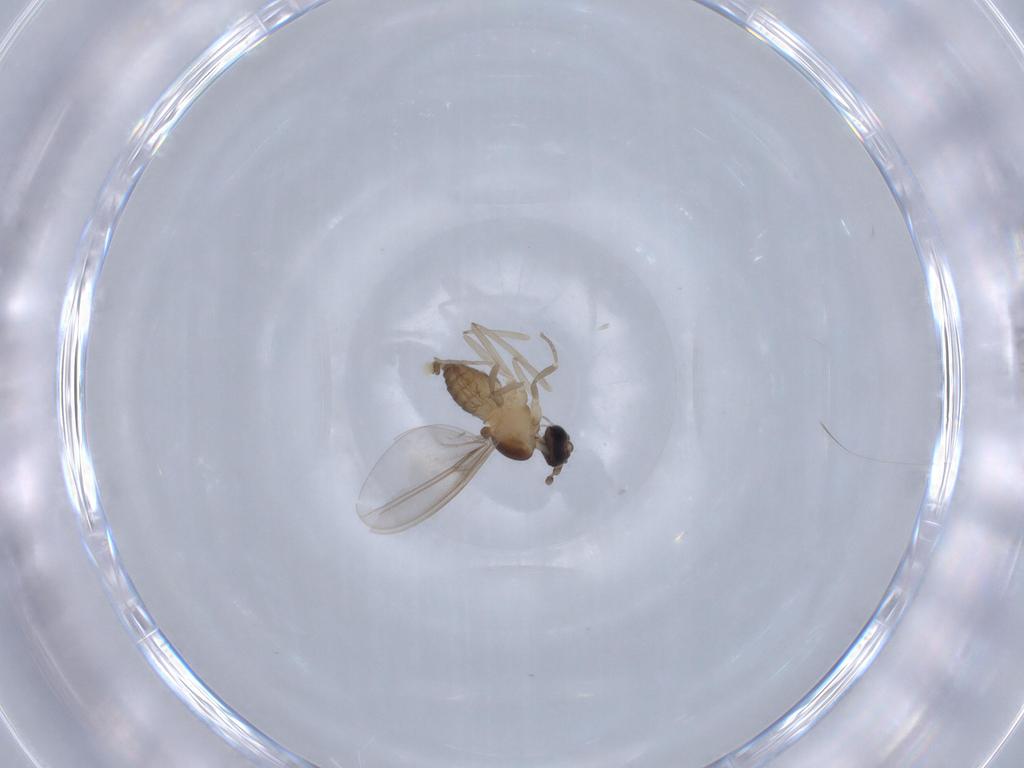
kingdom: Animalia
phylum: Arthropoda
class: Insecta
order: Diptera
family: Cecidomyiidae
